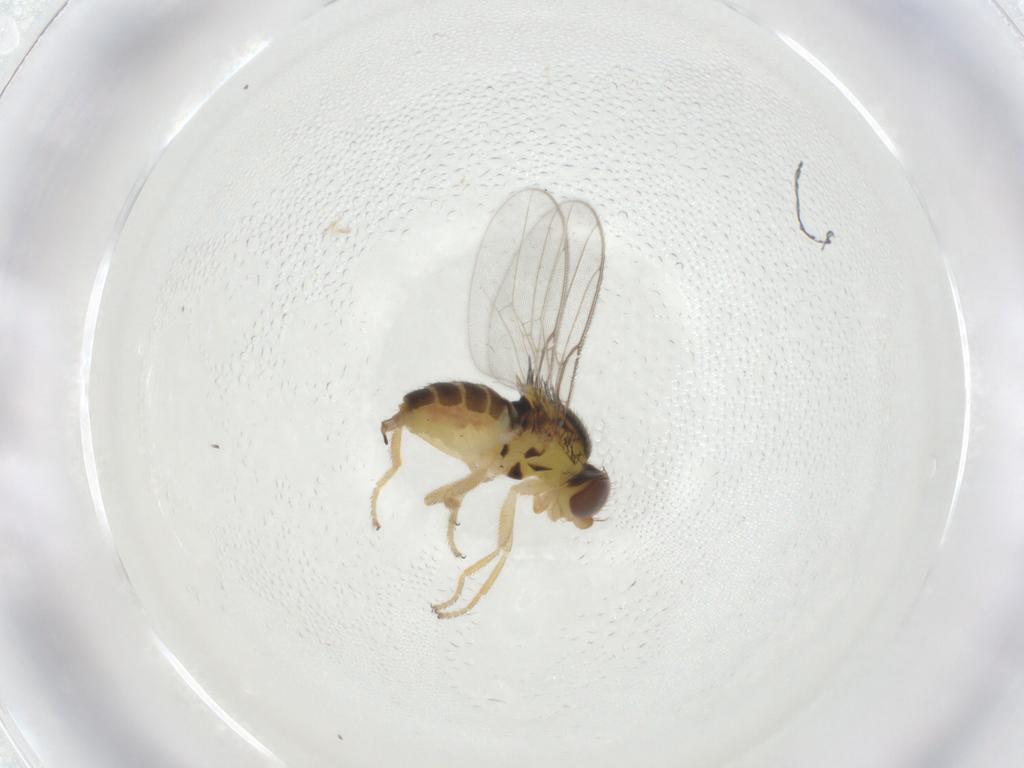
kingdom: Animalia
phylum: Arthropoda
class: Insecta
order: Diptera
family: Chloropidae
